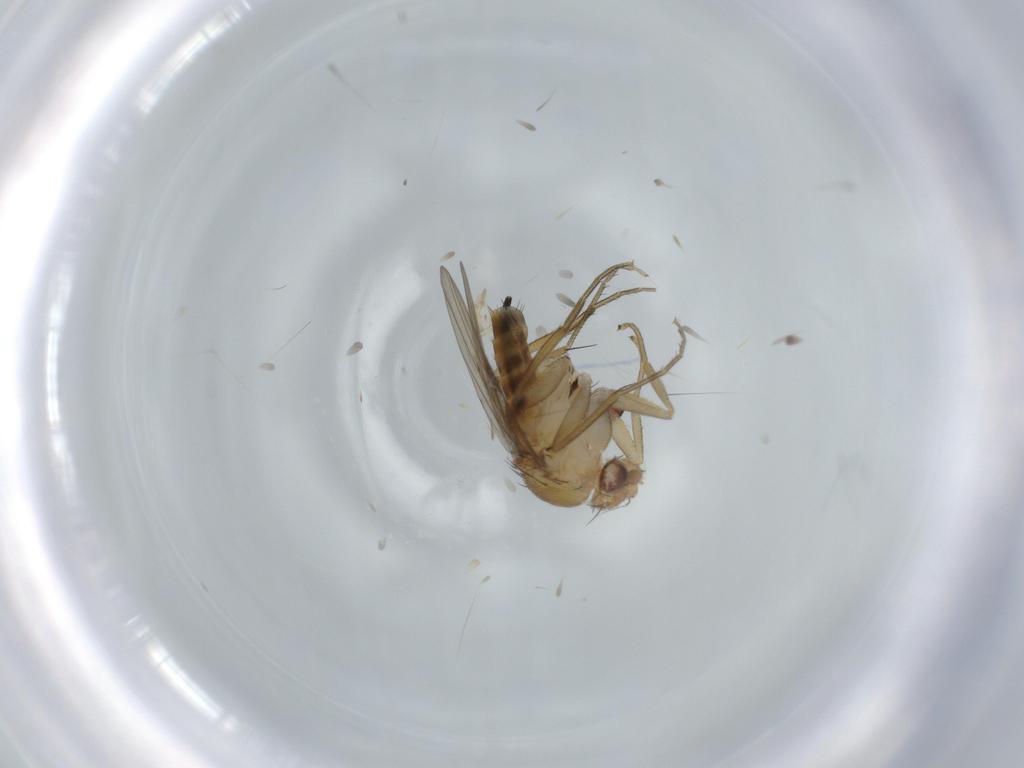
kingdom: Animalia
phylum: Arthropoda
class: Insecta
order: Diptera
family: Phoridae
